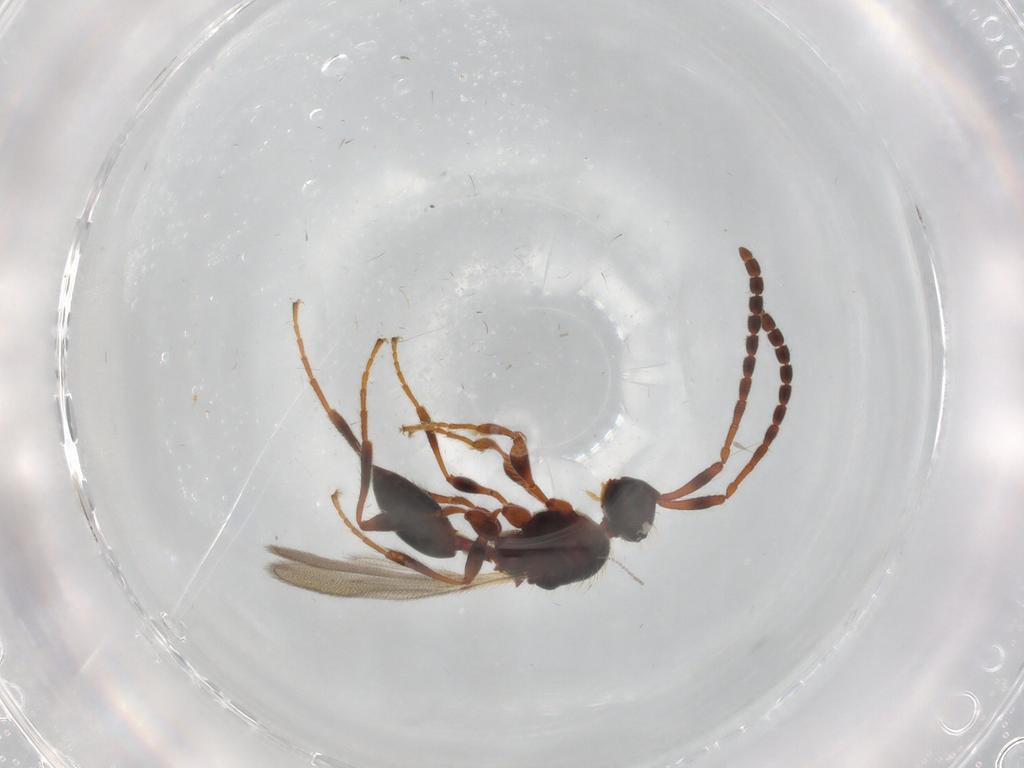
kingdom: Animalia
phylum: Arthropoda
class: Insecta
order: Hymenoptera
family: Diapriidae
